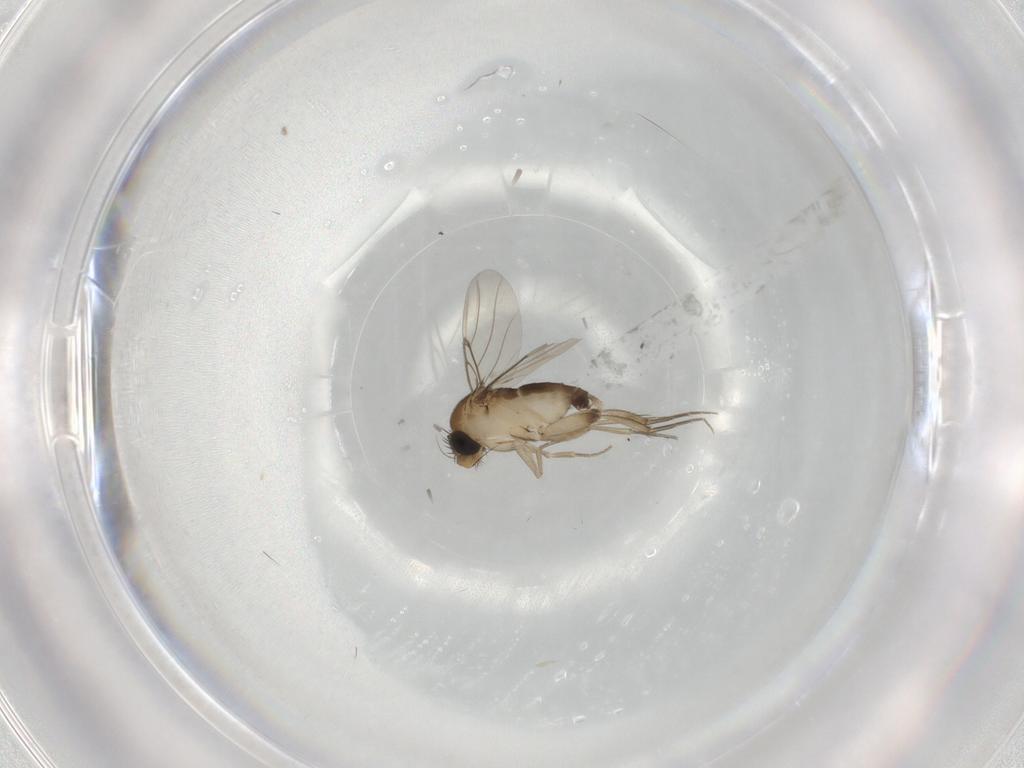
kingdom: Animalia
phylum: Arthropoda
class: Insecta
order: Diptera
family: Phoridae
